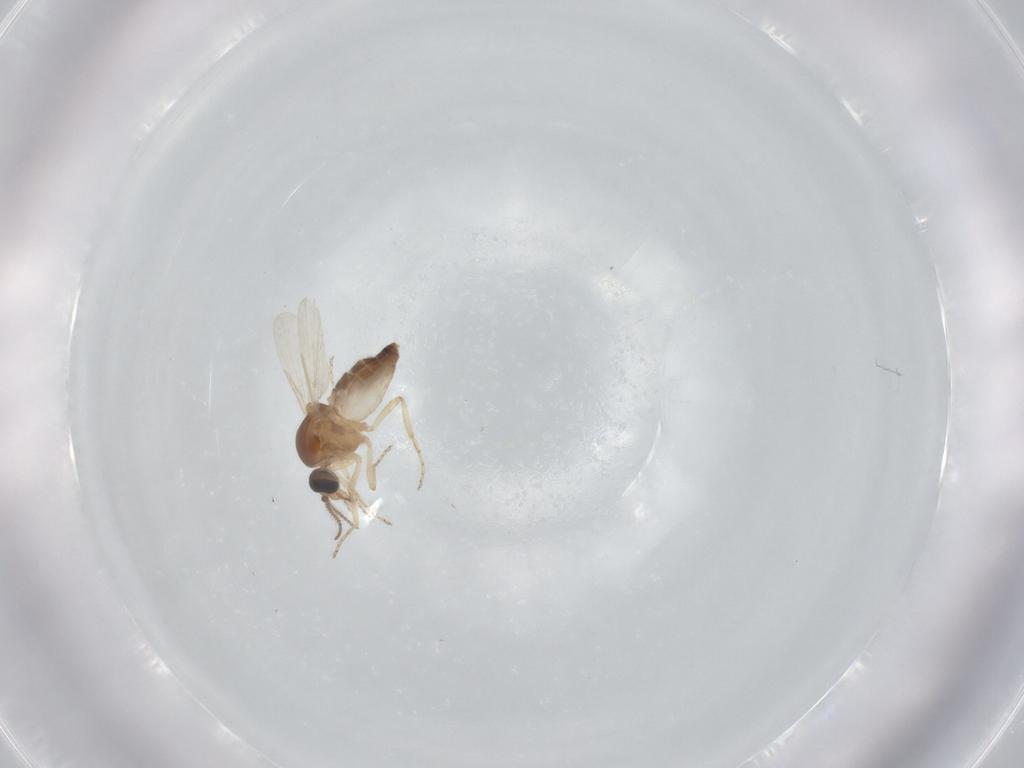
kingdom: Animalia
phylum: Arthropoda
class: Insecta
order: Diptera
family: Ceratopogonidae
